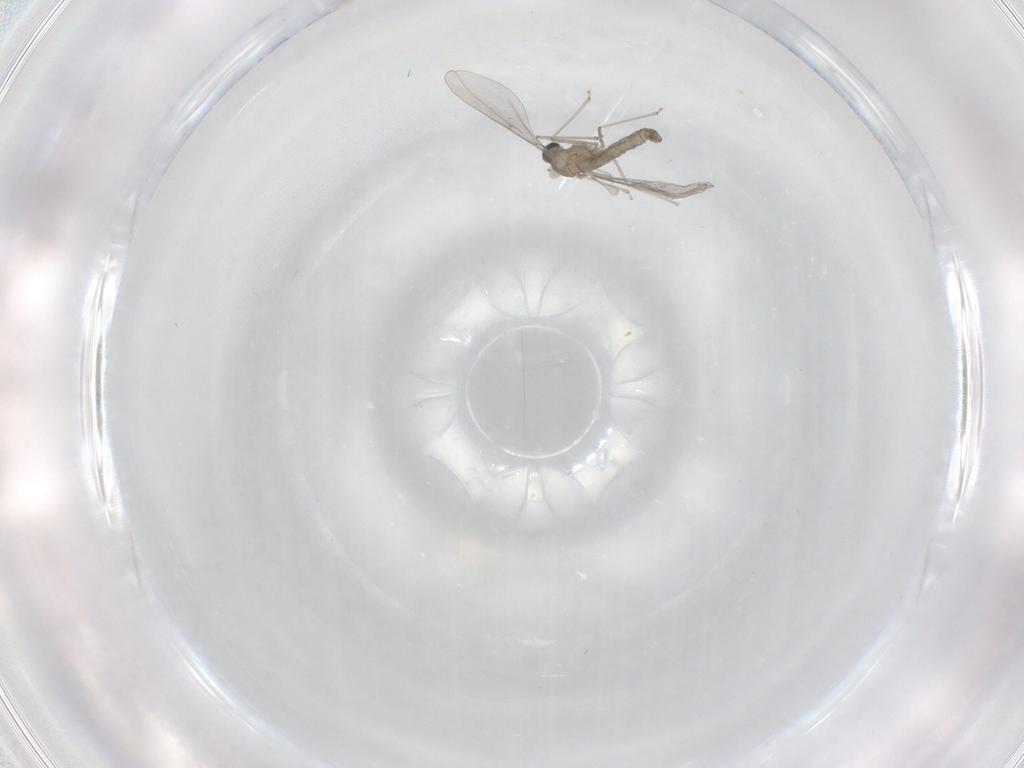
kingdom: Animalia
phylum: Arthropoda
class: Insecta
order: Diptera
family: Cecidomyiidae
